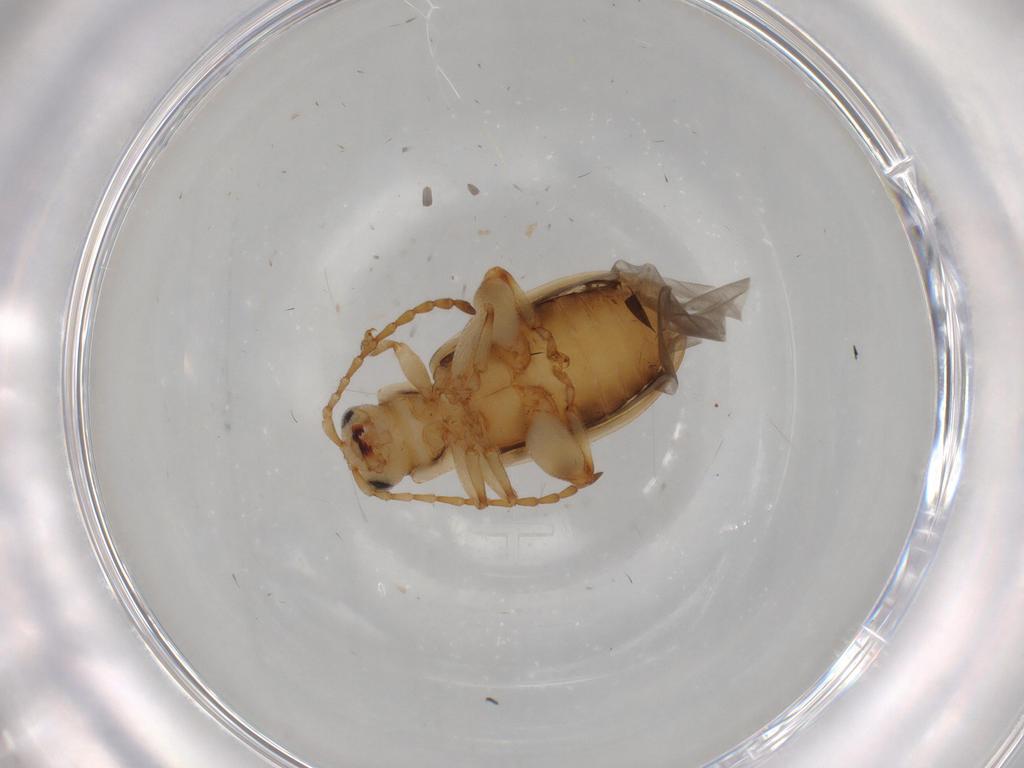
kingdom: Animalia
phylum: Arthropoda
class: Insecta
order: Coleoptera
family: Chrysomelidae
